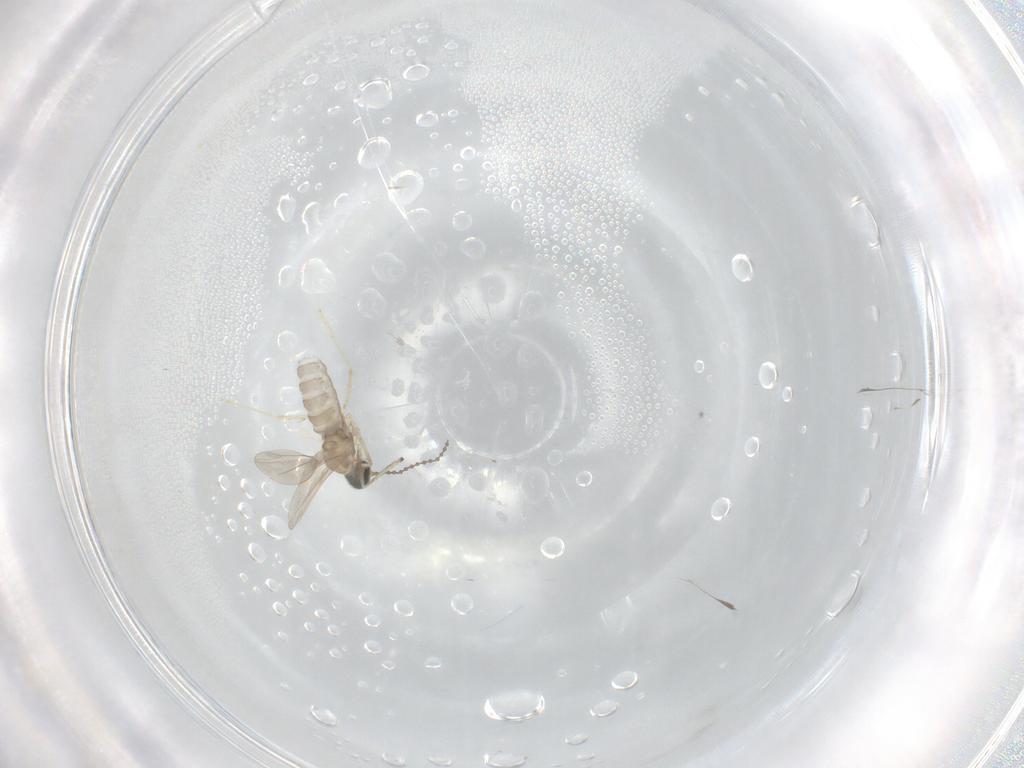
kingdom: Animalia
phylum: Arthropoda
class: Insecta
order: Diptera
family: Cecidomyiidae
